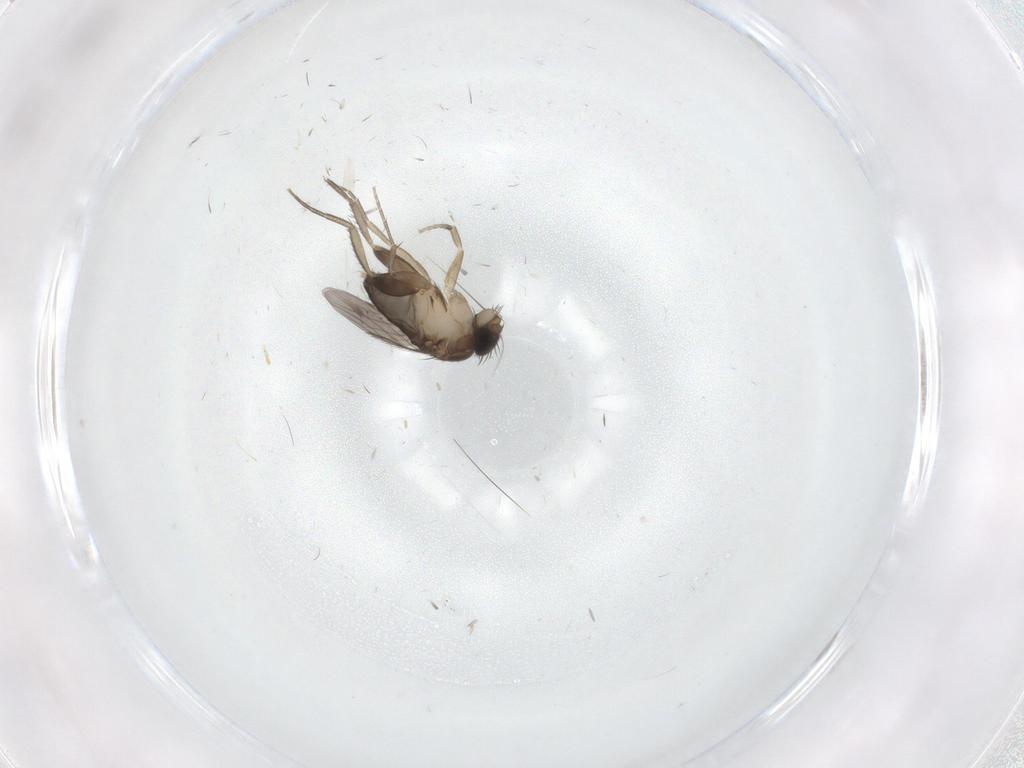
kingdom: Animalia
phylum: Arthropoda
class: Insecta
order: Diptera
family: Phoridae
